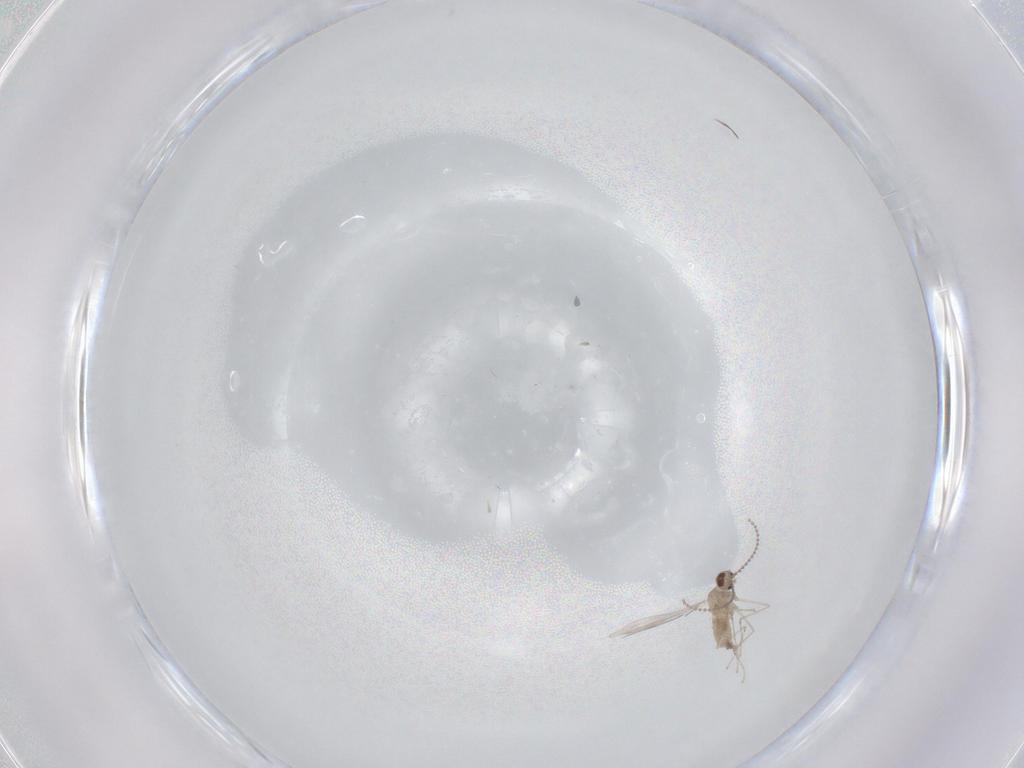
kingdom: Animalia
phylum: Arthropoda
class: Insecta
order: Diptera
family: Cecidomyiidae
